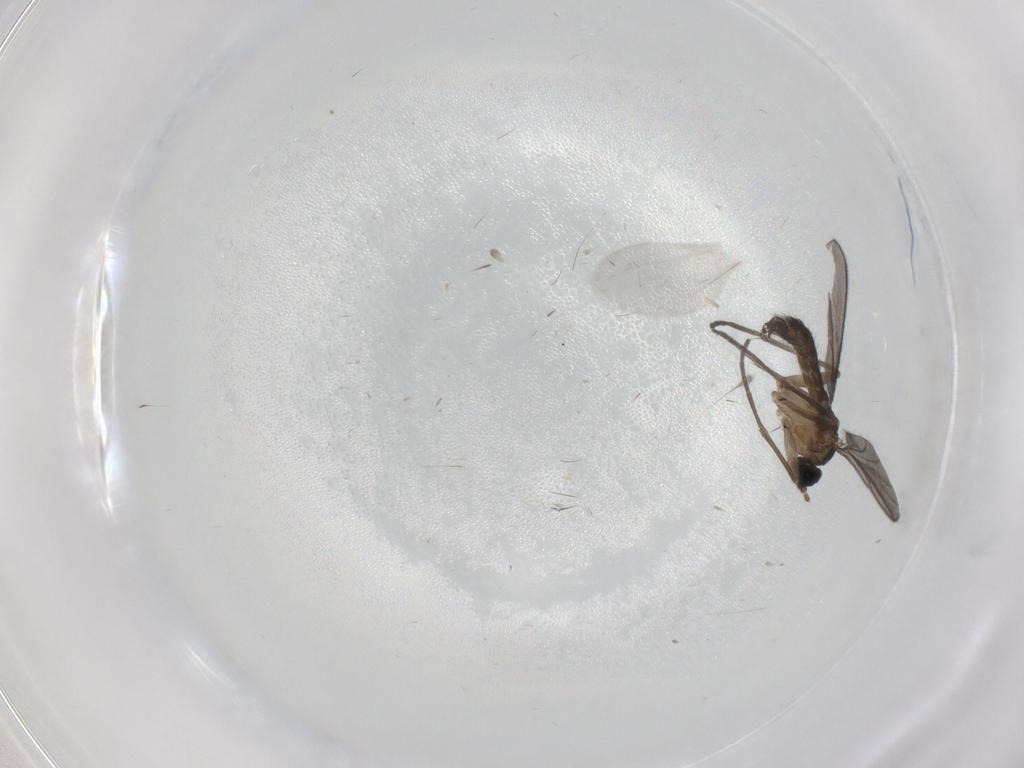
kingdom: Animalia
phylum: Arthropoda
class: Insecta
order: Diptera
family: Sciaridae
